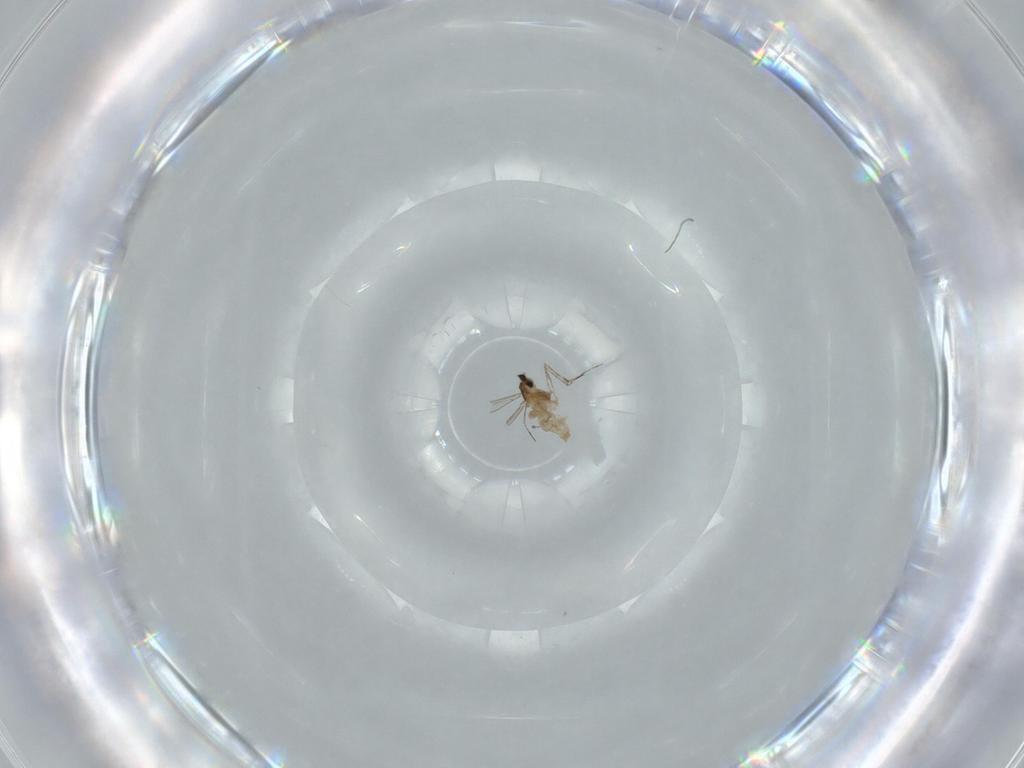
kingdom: Animalia
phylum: Arthropoda
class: Insecta
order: Diptera
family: Cecidomyiidae
